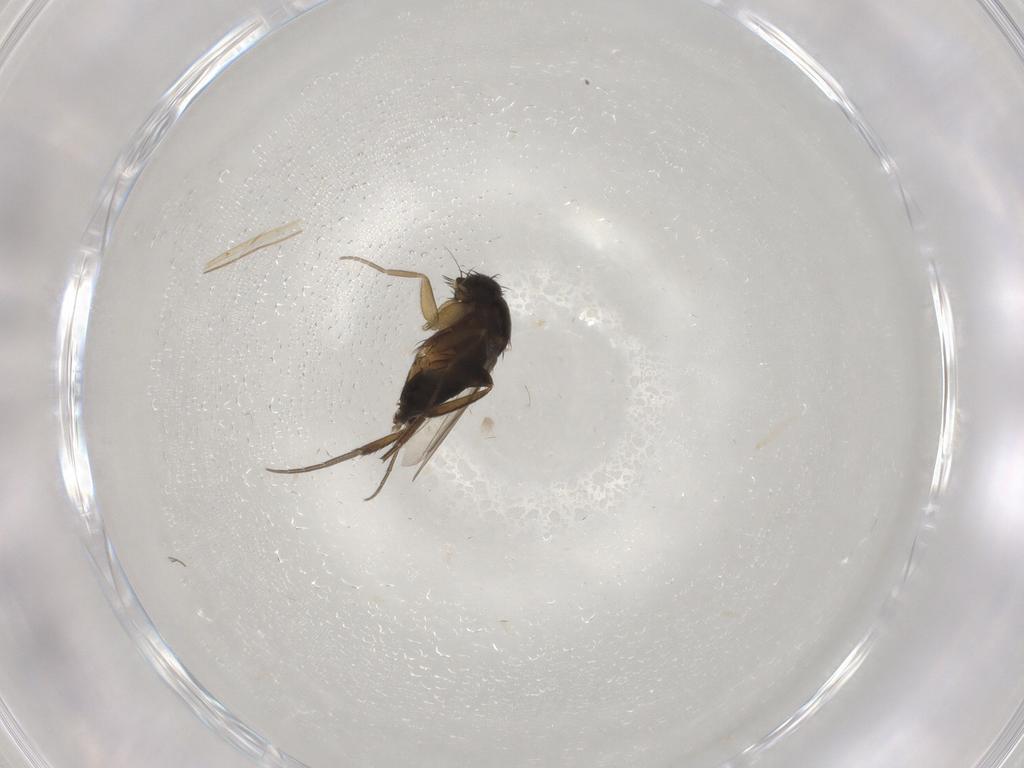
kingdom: Animalia
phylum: Arthropoda
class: Insecta
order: Diptera
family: Phoridae
